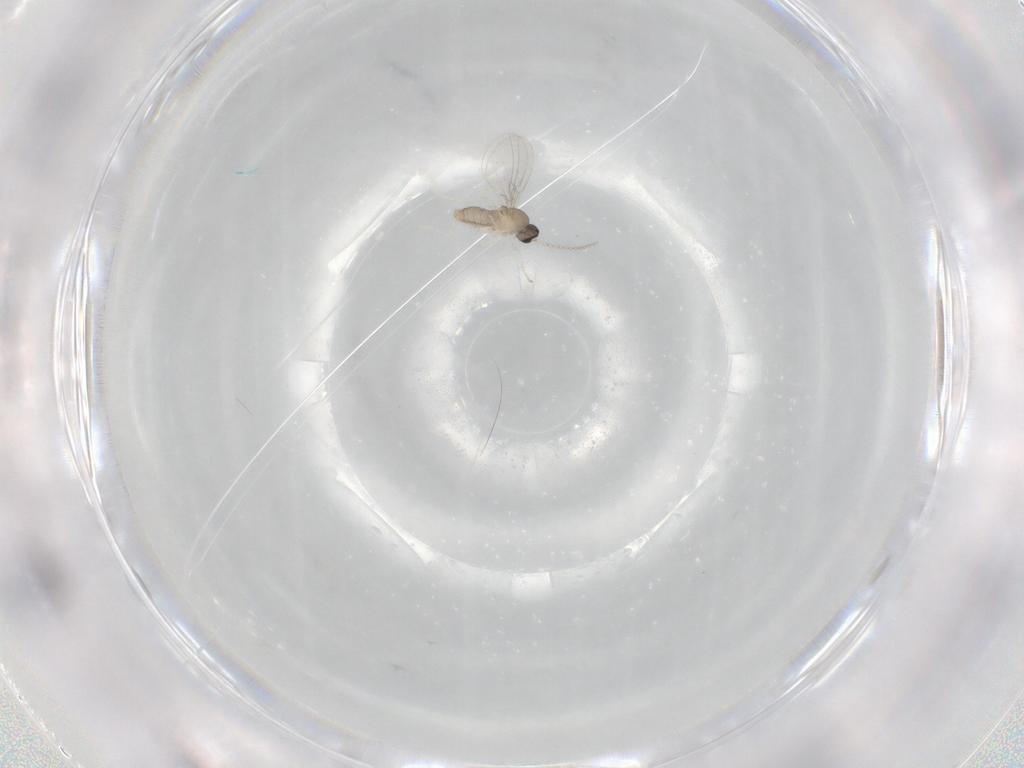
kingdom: Animalia
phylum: Arthropoda
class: Insecta
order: Diptera
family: Cecidomyiidae
